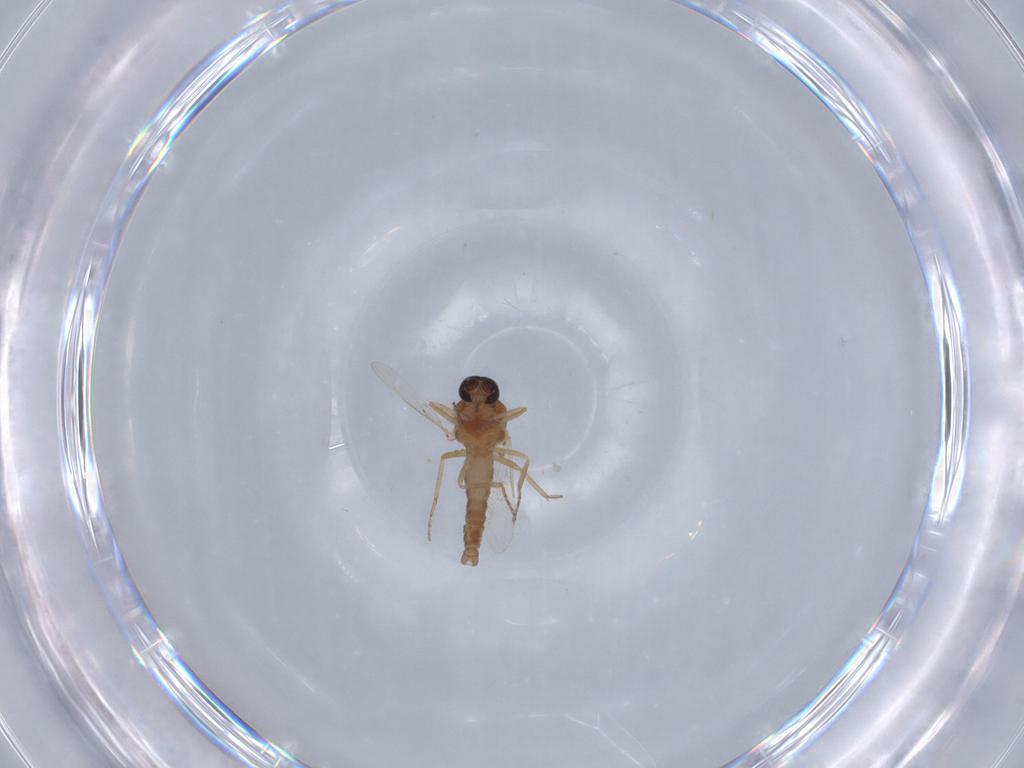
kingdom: Animalia
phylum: Arthropoda
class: Insecta
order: Diptera
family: Ceratopogonidae
